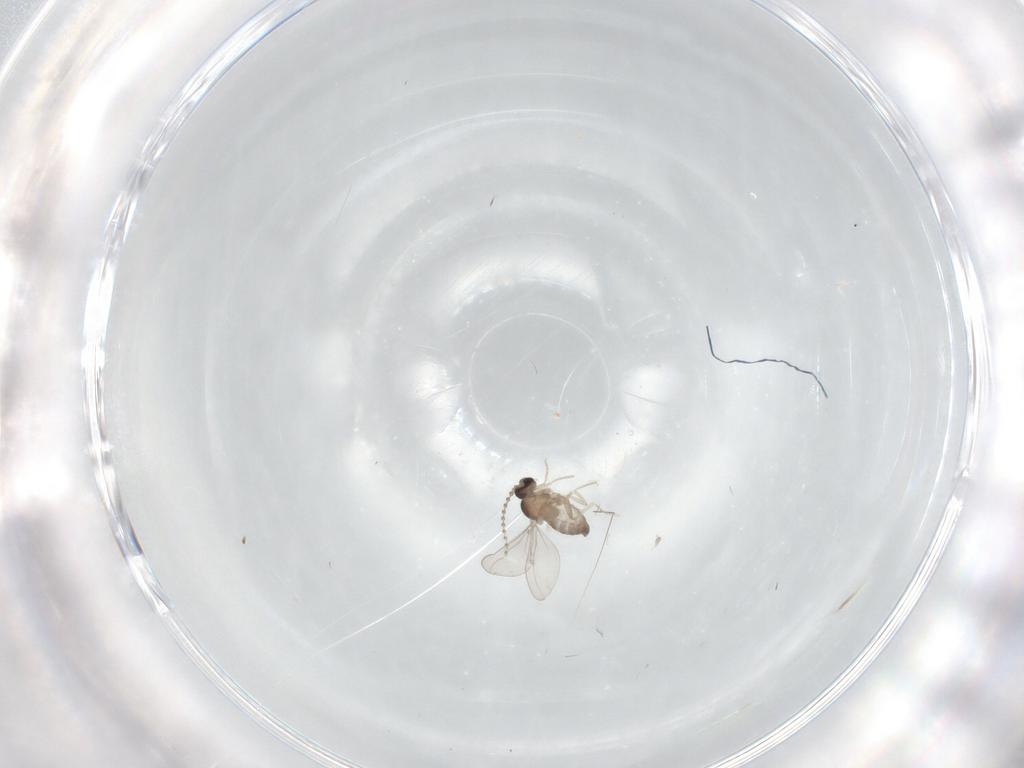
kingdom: Animalia
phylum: Arthropoda
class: Insecta
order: Diptera
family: Cecidomyiidae
